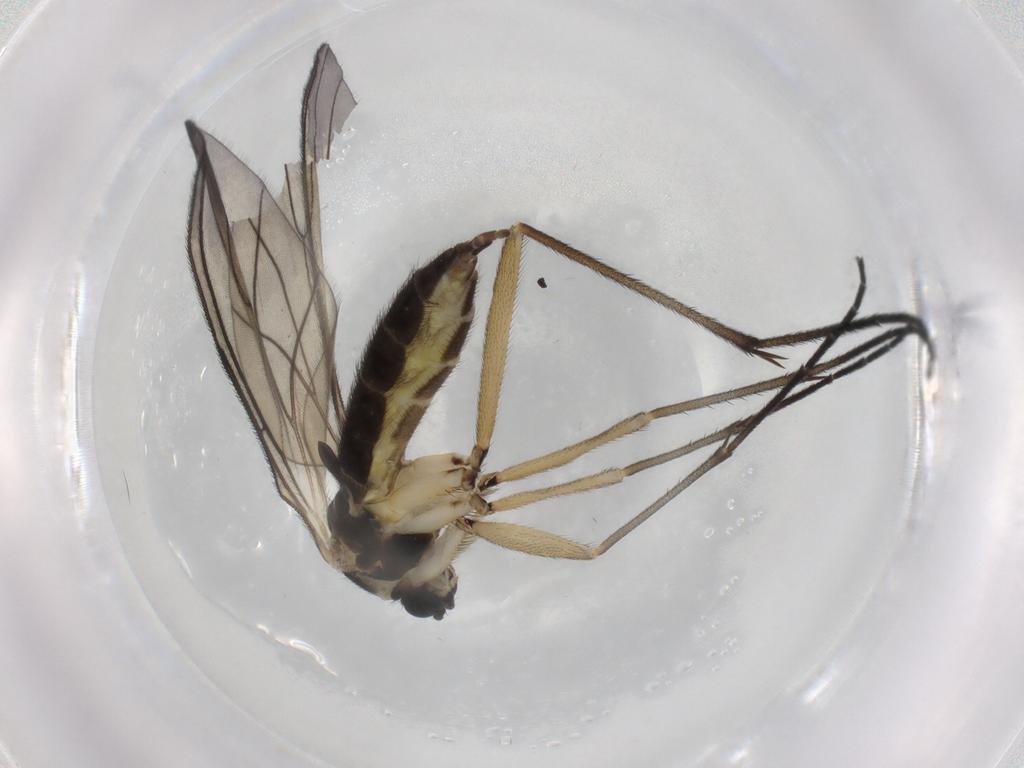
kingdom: Animalia
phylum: Arthropoda
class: Insecta
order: Diptera
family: Sciaridae
